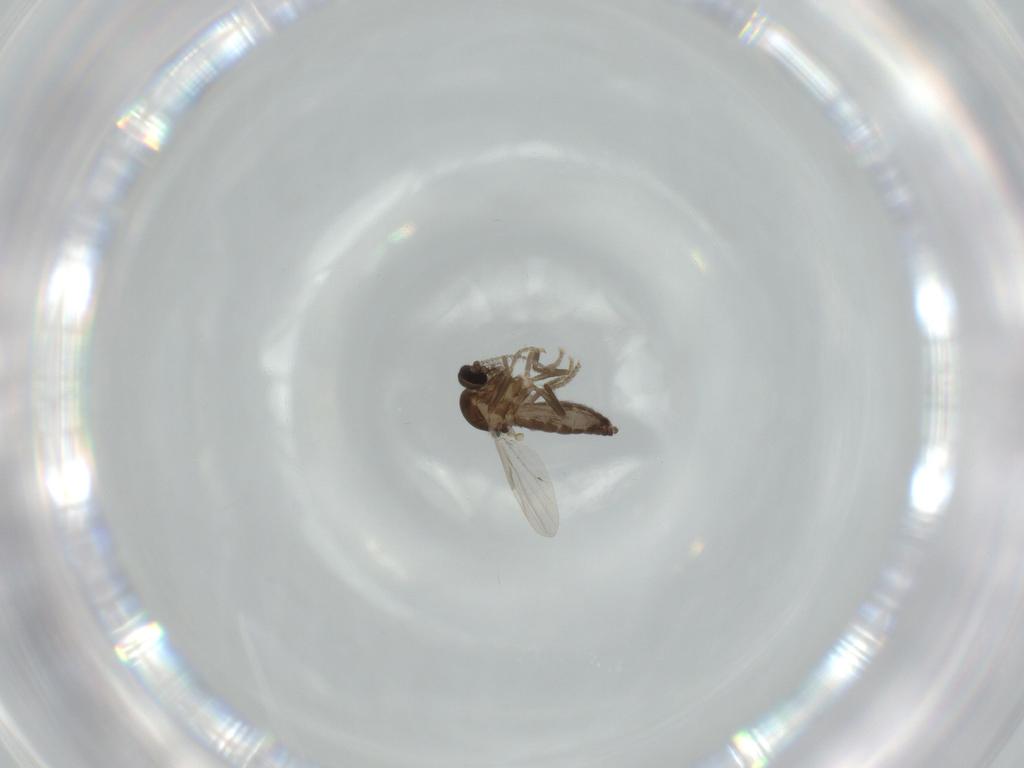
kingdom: Animalia
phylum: Arthropoda
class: Insecta
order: Diptera
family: Ceratopogonidae
